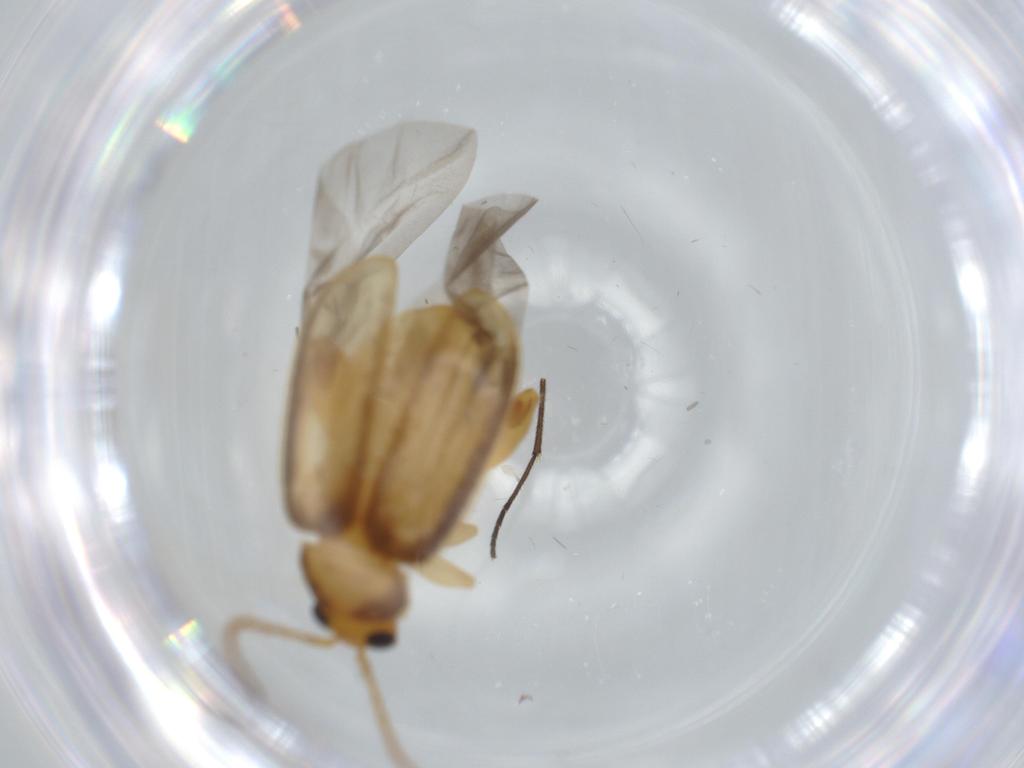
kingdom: Animalia
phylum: Arthropoda
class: Insecta
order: Coleoptera
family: Chrysomelidae
